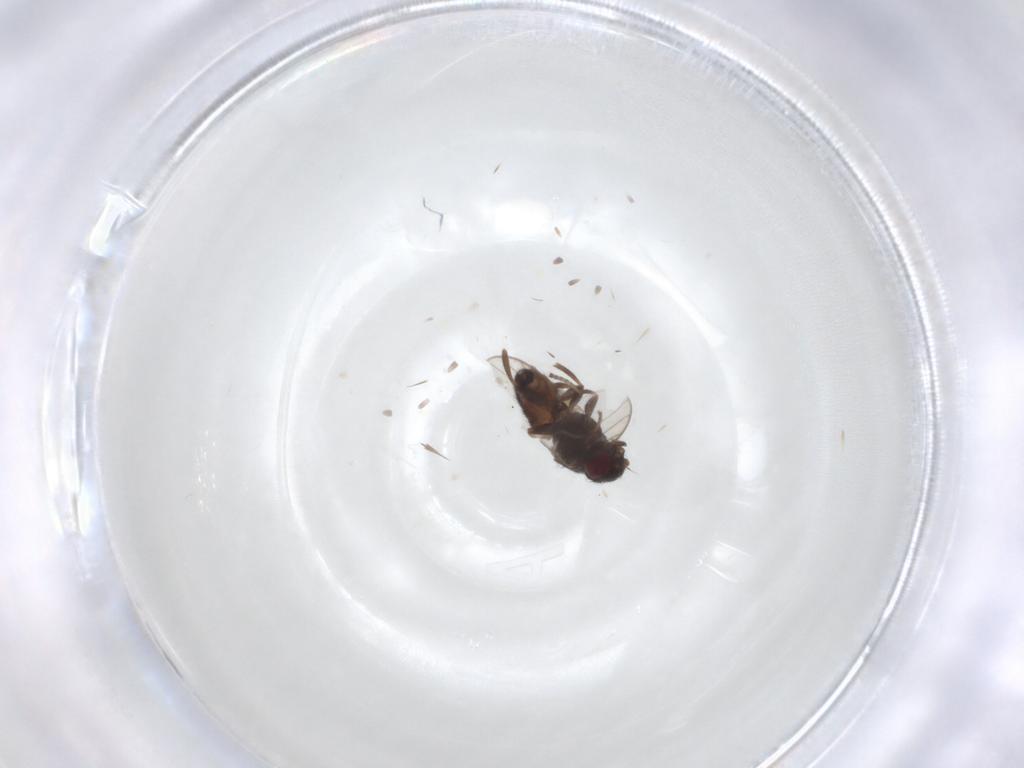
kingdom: Animalia
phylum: Arthropoda
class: Insecta
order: Diptera
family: Chloropidae
